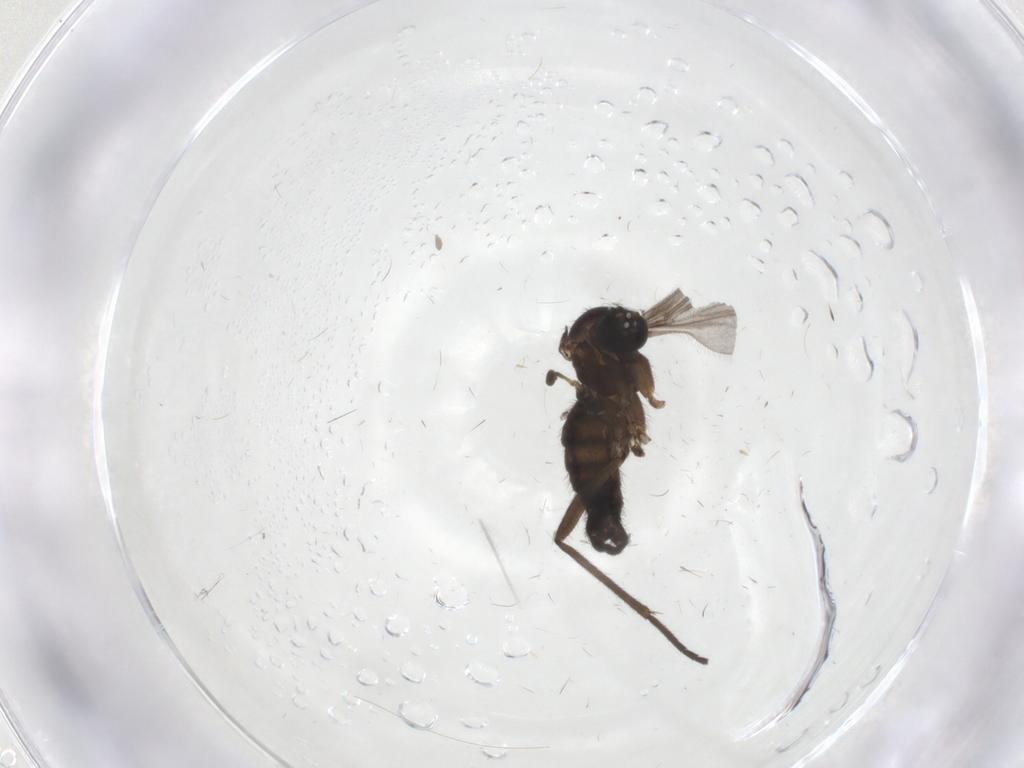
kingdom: Animalia
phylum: Arthropoda
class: Insecta
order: Diptera
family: Sciaridae
